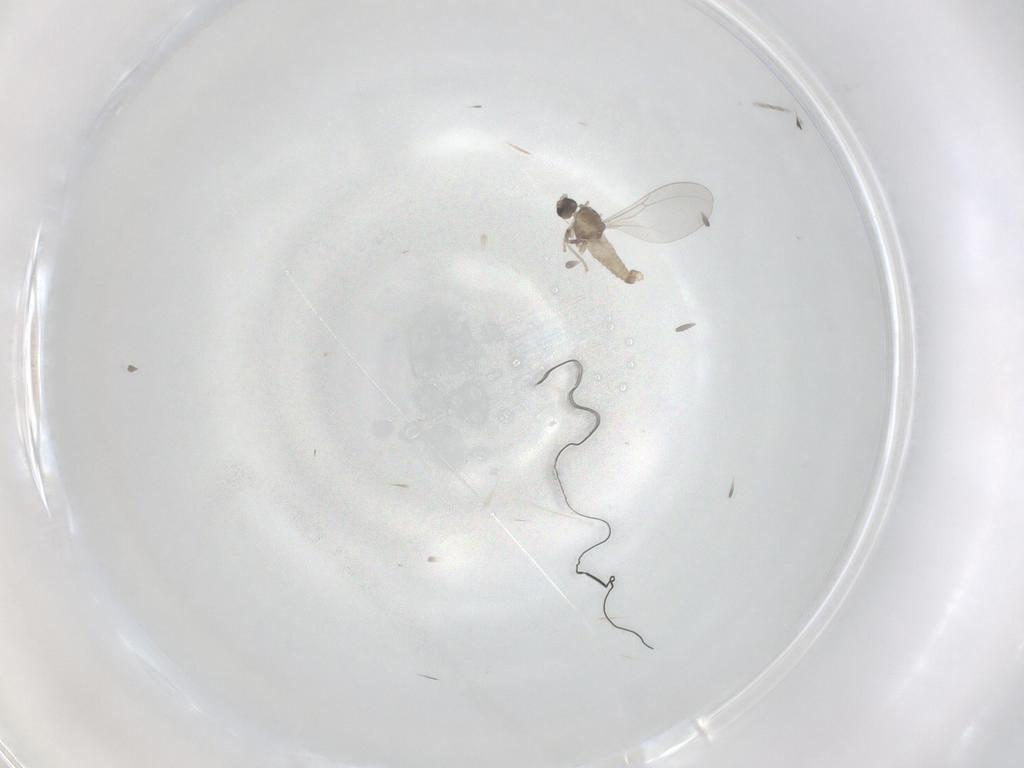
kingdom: Animalia
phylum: Arthropoda
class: Insecta
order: Diptera
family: Cecidomyiidae
